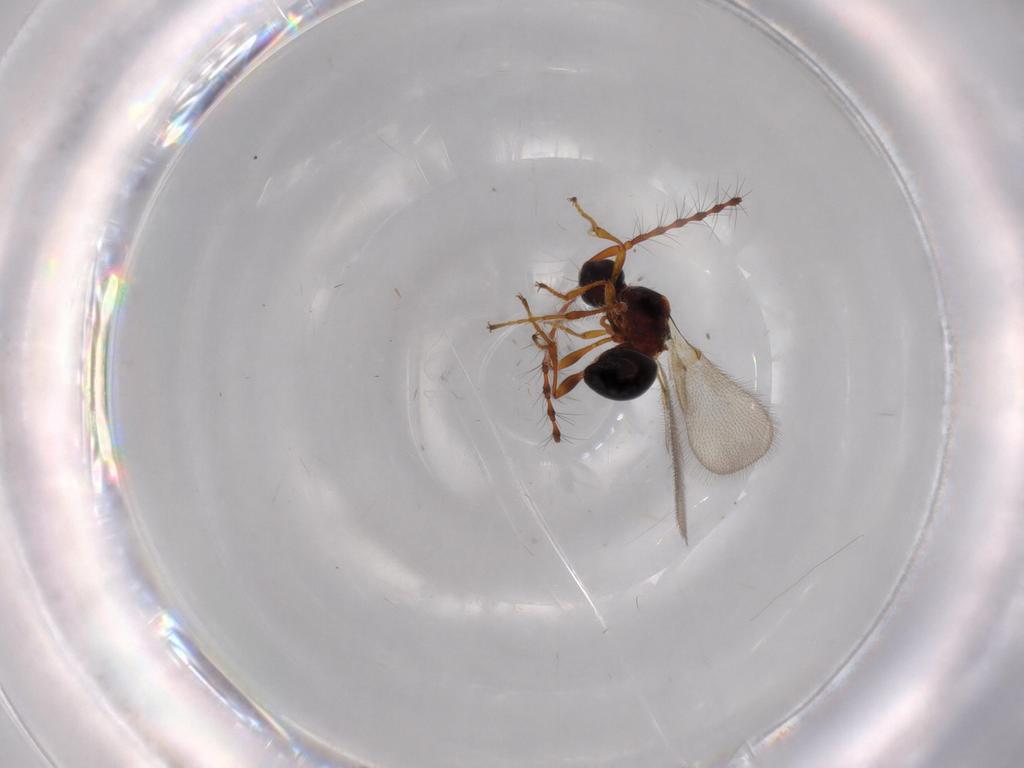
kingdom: Animalia
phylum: Arthropoda
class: Insecta
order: Hymenoptera
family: Diapriidae
